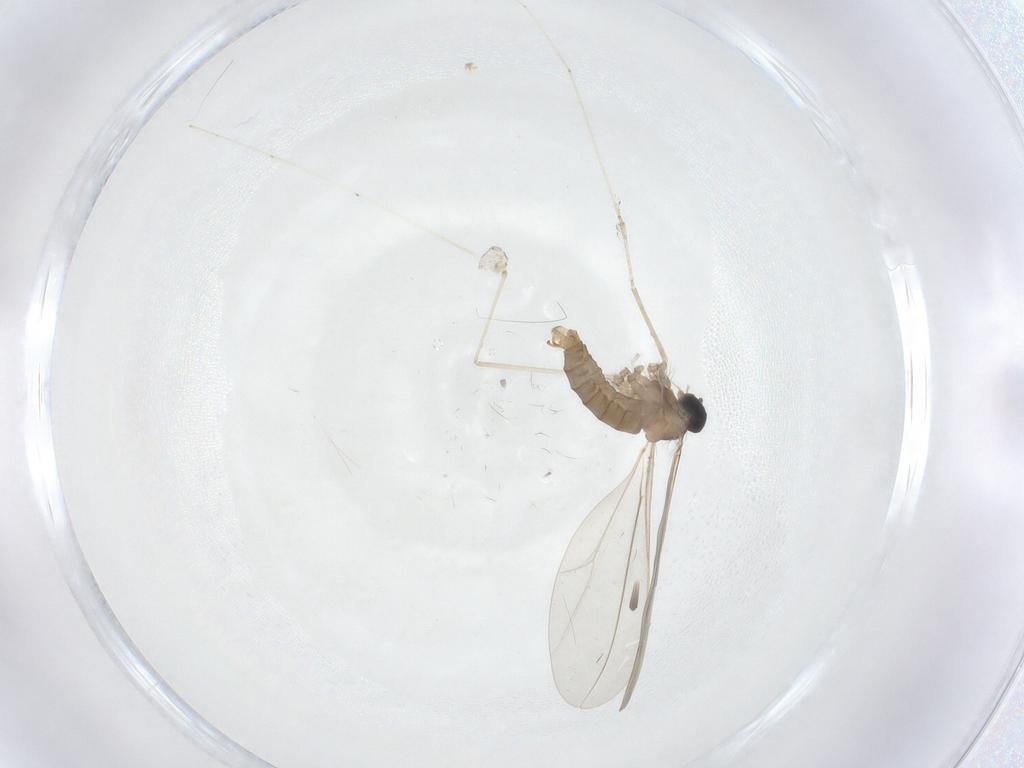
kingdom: Animalia
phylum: Arthropoda
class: Insecta
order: Diptera
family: Cecidomyiidae
